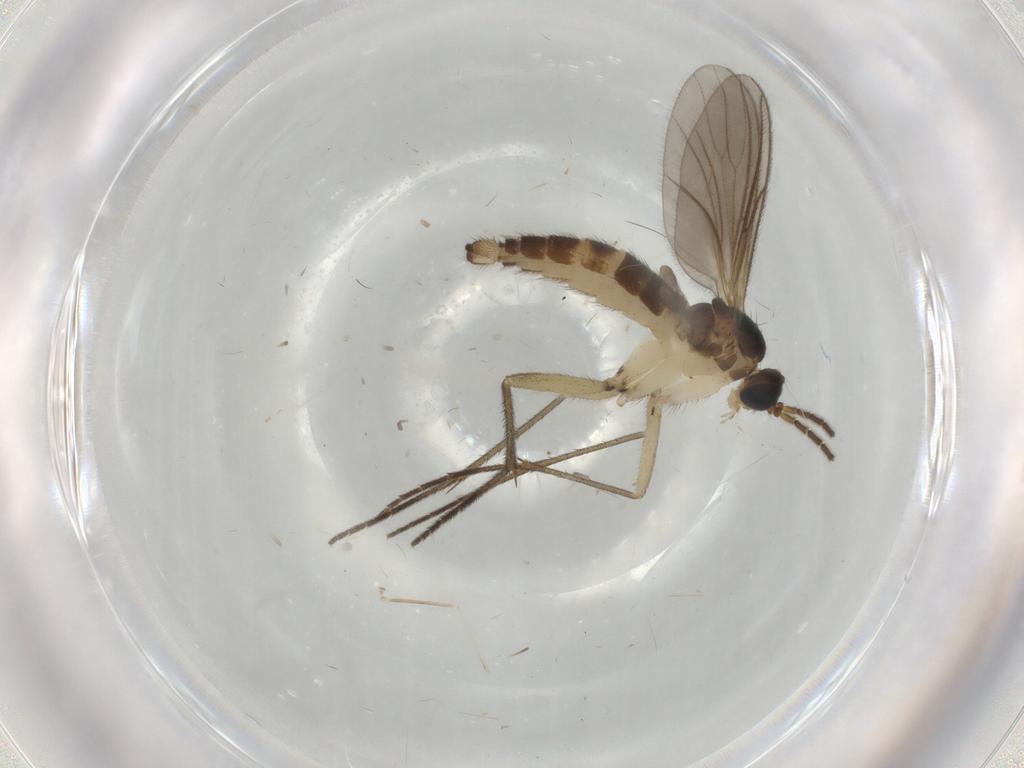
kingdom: Animalia
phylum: Arthropoda
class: Insecta
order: Diptera
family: Sciaridae
